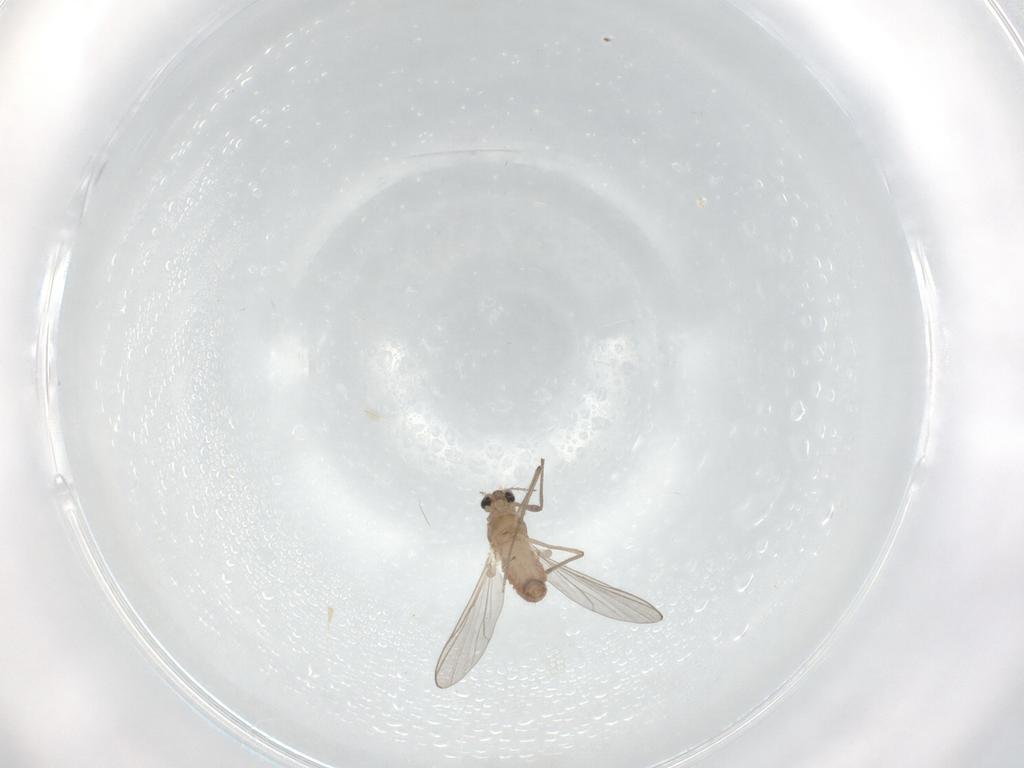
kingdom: Animalia
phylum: Arthropoda
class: Insecta
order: Diptera
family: Chironomidae
